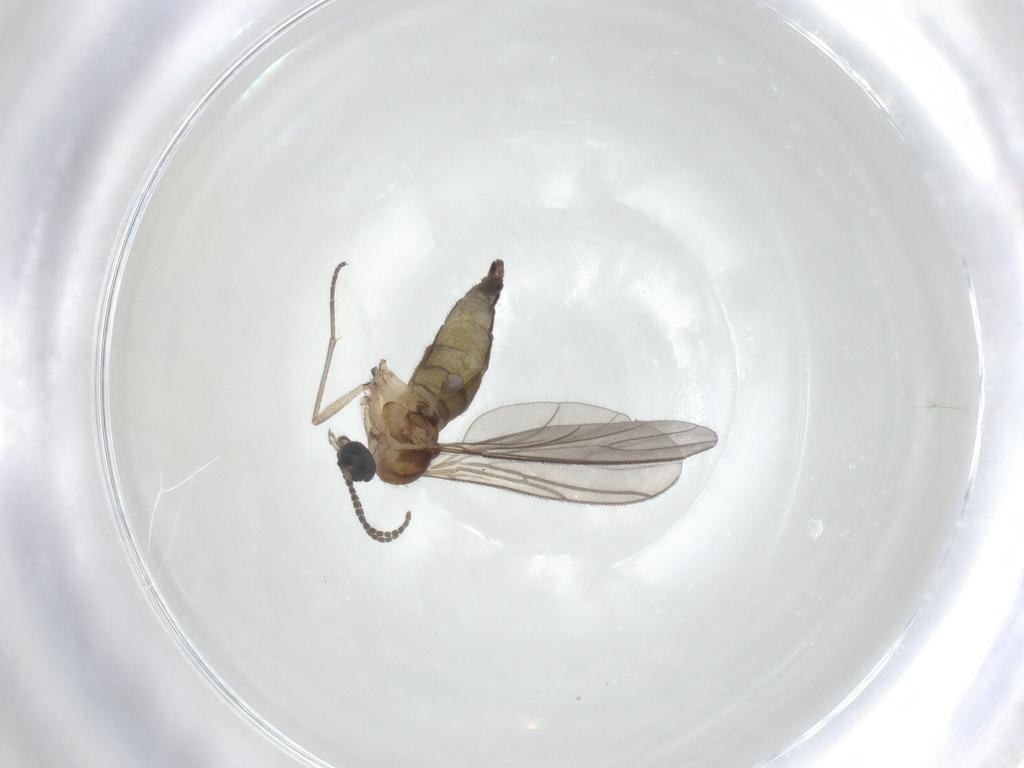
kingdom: Animalia
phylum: Arthropoda
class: Insecta
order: Diptera
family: Sciaridae
